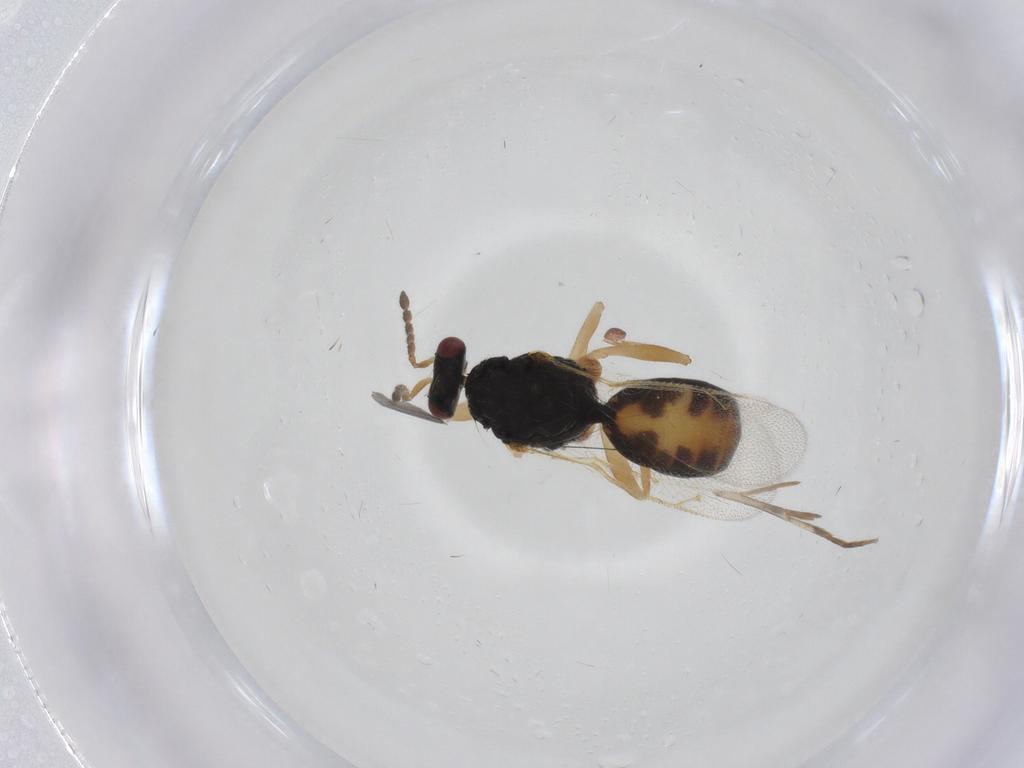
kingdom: Animalia
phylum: Arthropoda
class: Insecta
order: Hymenoptera
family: Eulophidae
